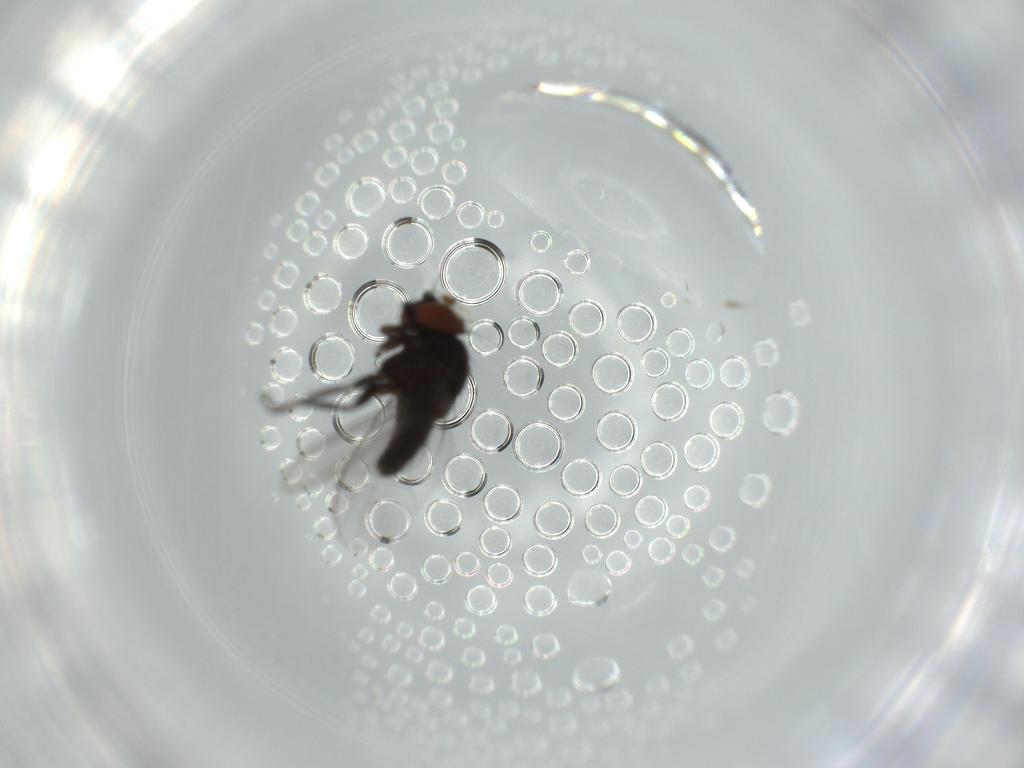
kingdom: Animalia
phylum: Arthropoda
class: Insecta
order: Diptera
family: Milichiidae
